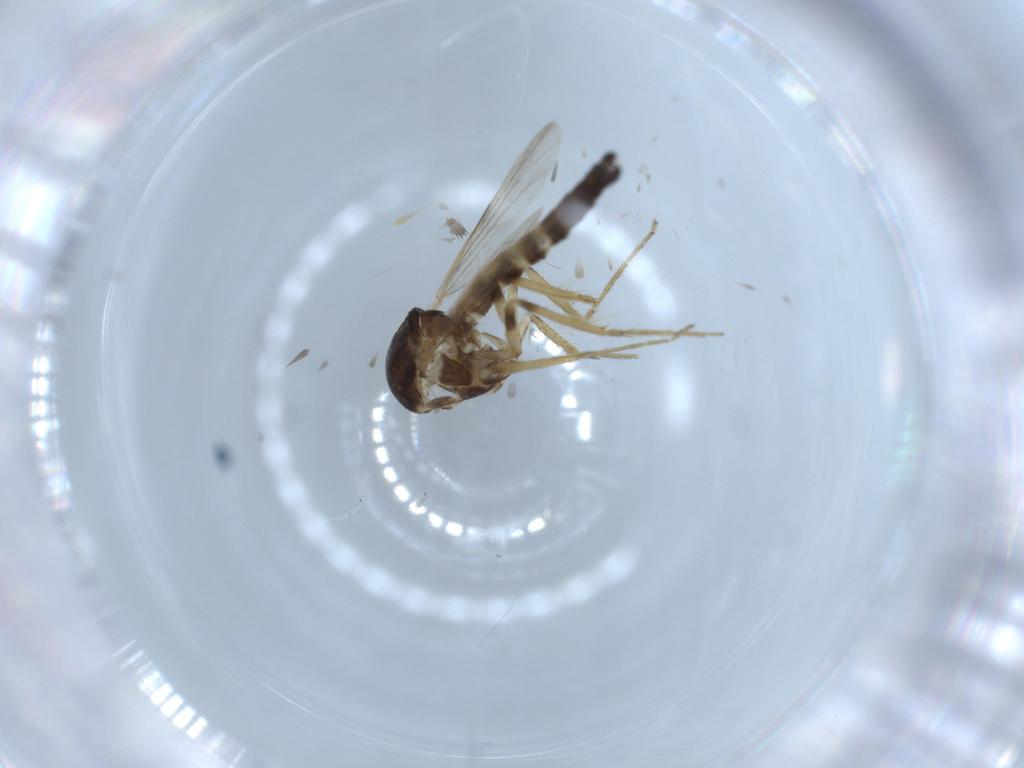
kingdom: Animalia
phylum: Arthropoda
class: Insecta
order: Diptera
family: Ceratopogonidae
